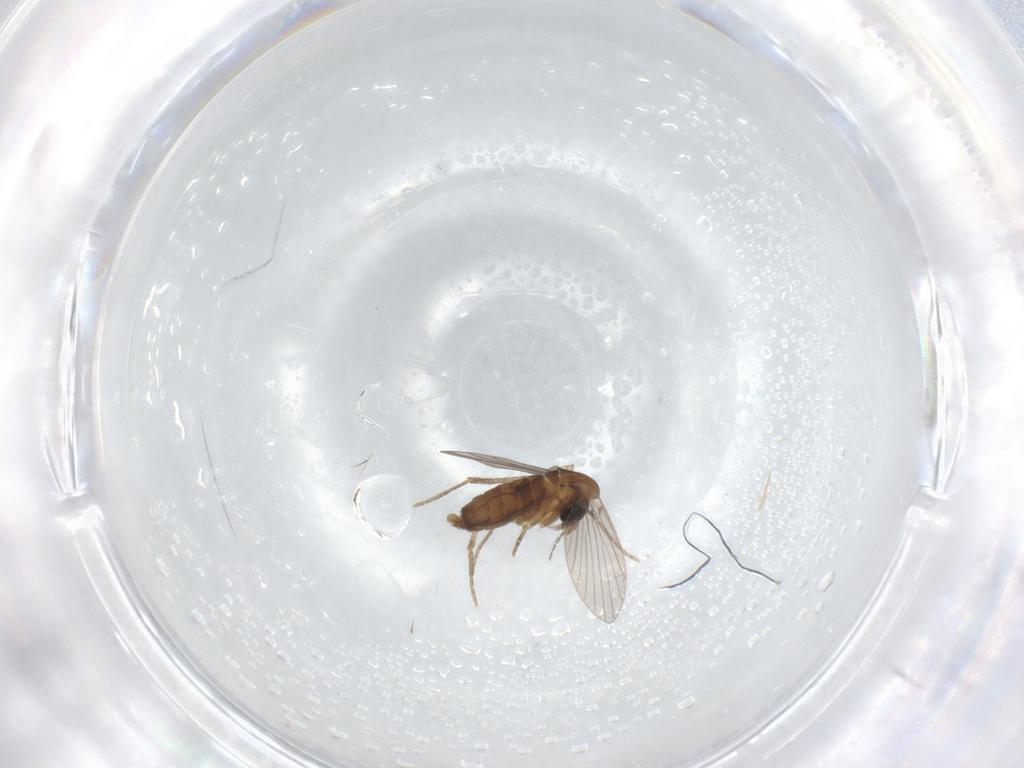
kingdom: Animalia
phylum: Arthropoda
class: Insecta
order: Diptera
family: Cecidomyiidae
